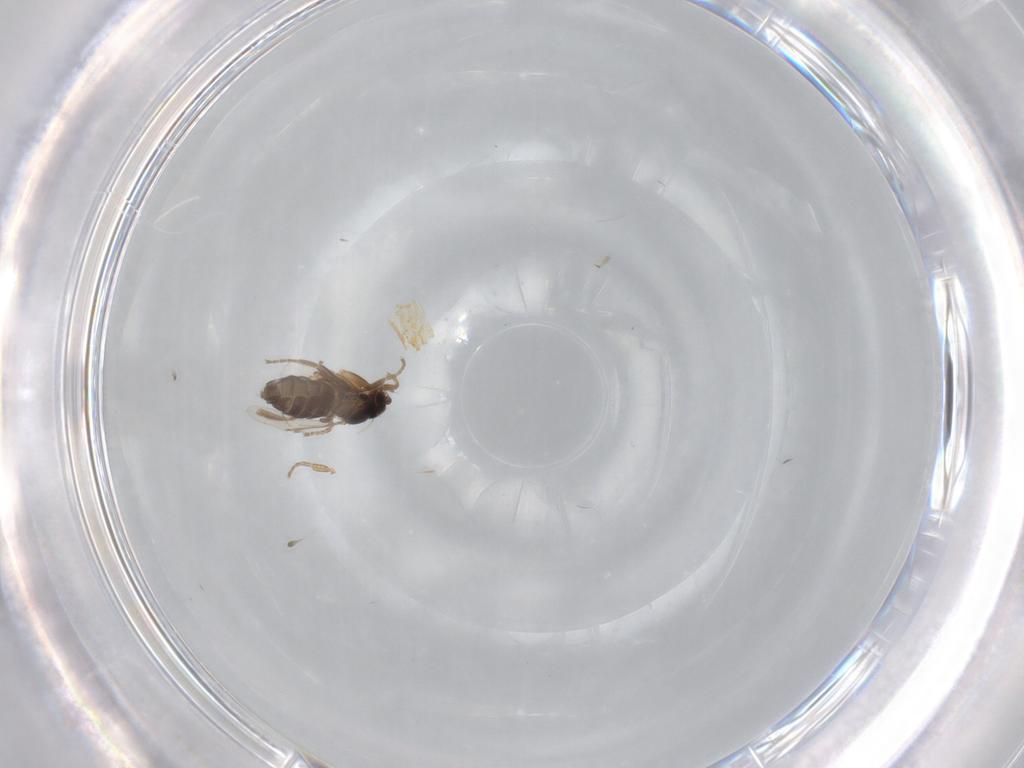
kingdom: Animalia
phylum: Arthropoda
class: Insecta
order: Diptera
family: Chironomidae
